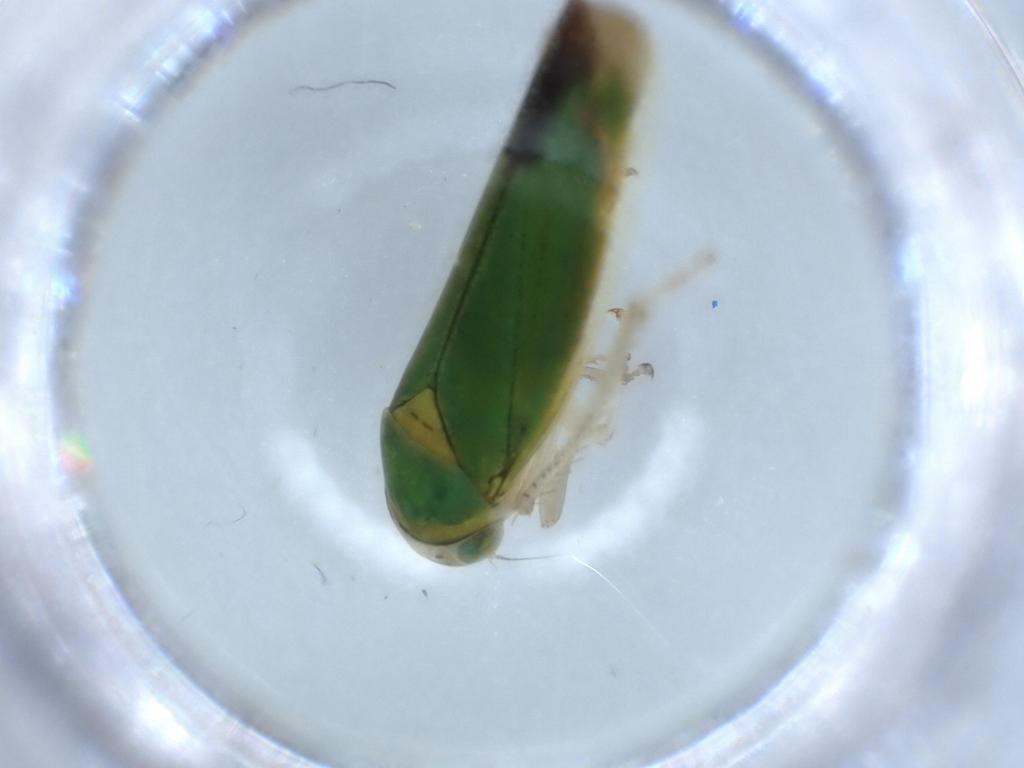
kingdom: Animalia
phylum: Arthropoda
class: Insecta
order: Hemiptera
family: Cicadellidae
